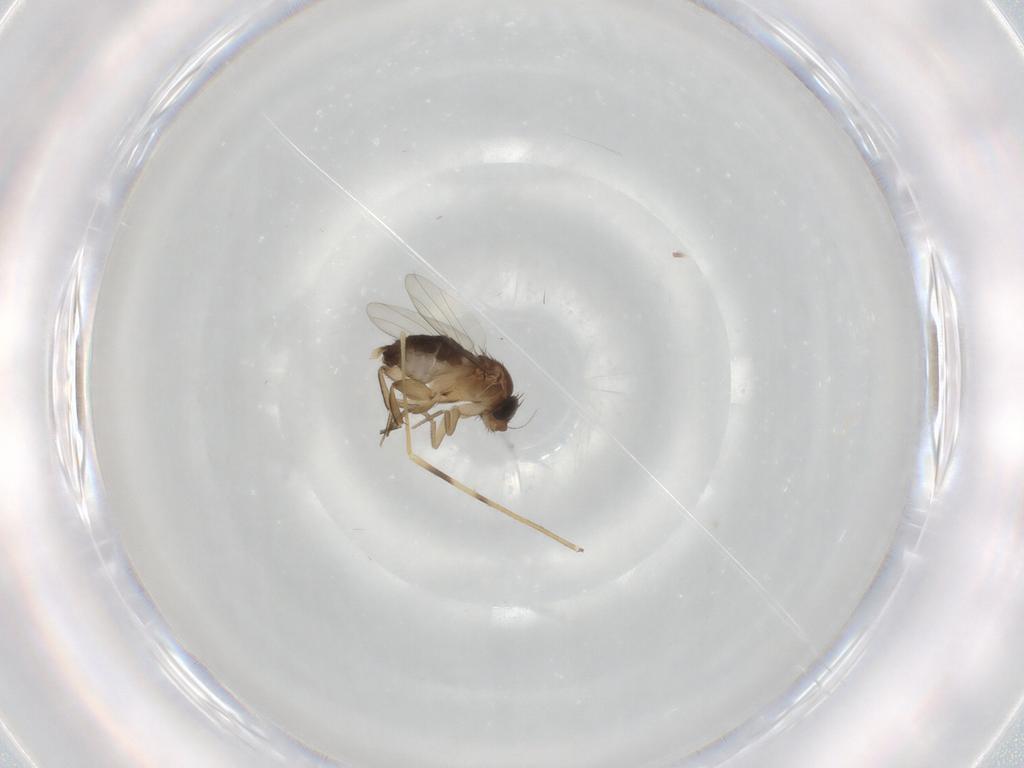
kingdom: Animalia
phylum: Arthropoda
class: Insecta
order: Diptera
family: Limoniidae
